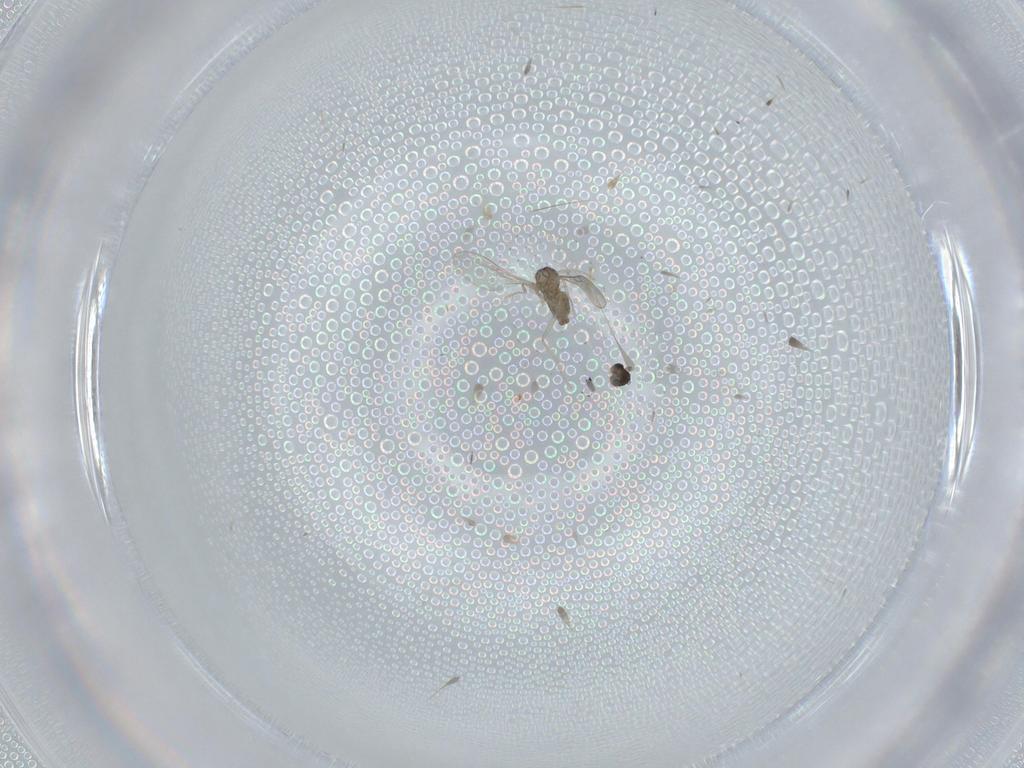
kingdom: Animalia
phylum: Arthropoda
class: Insecta
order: Diptera
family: Cecidomyiidae
